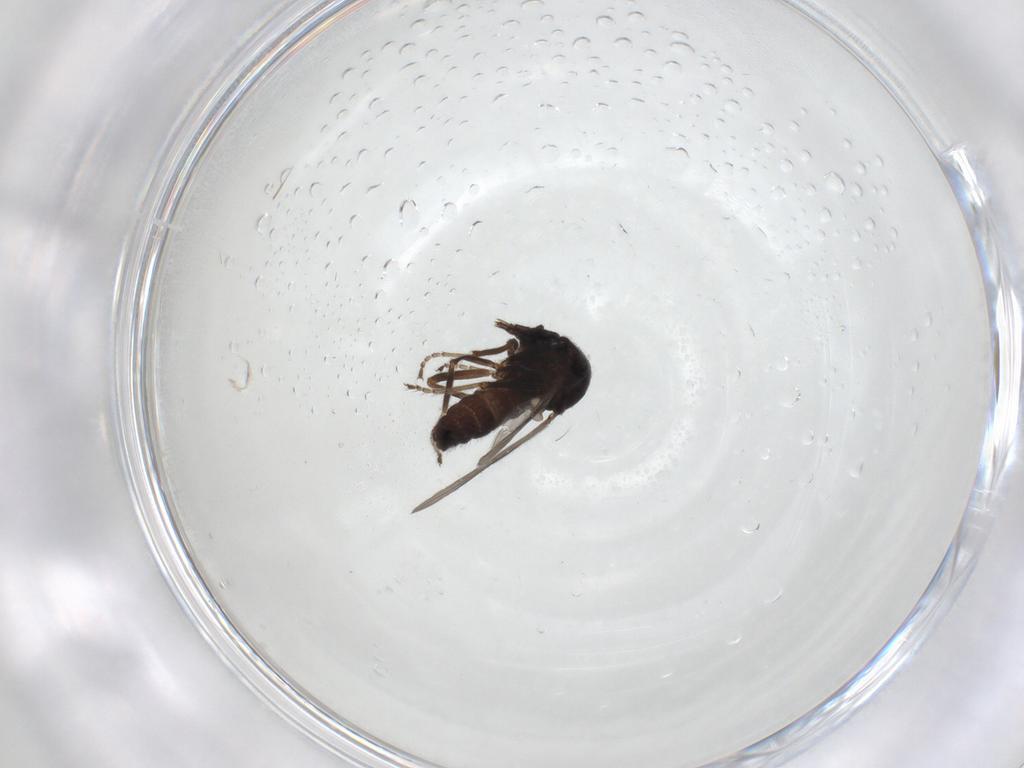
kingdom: Animalia
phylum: Arthropoda
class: Insecta
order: Diptera
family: Ceratopogonidae
